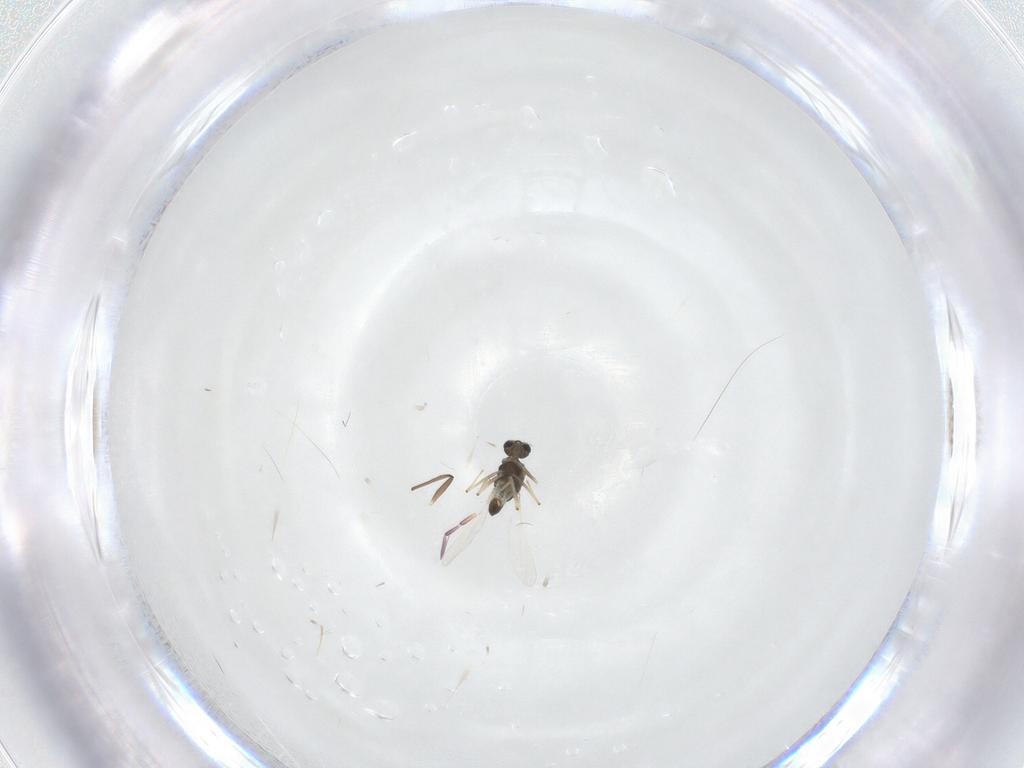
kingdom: Animalia
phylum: Arthropoda
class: Insecta
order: Diptera
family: Chironomidae
